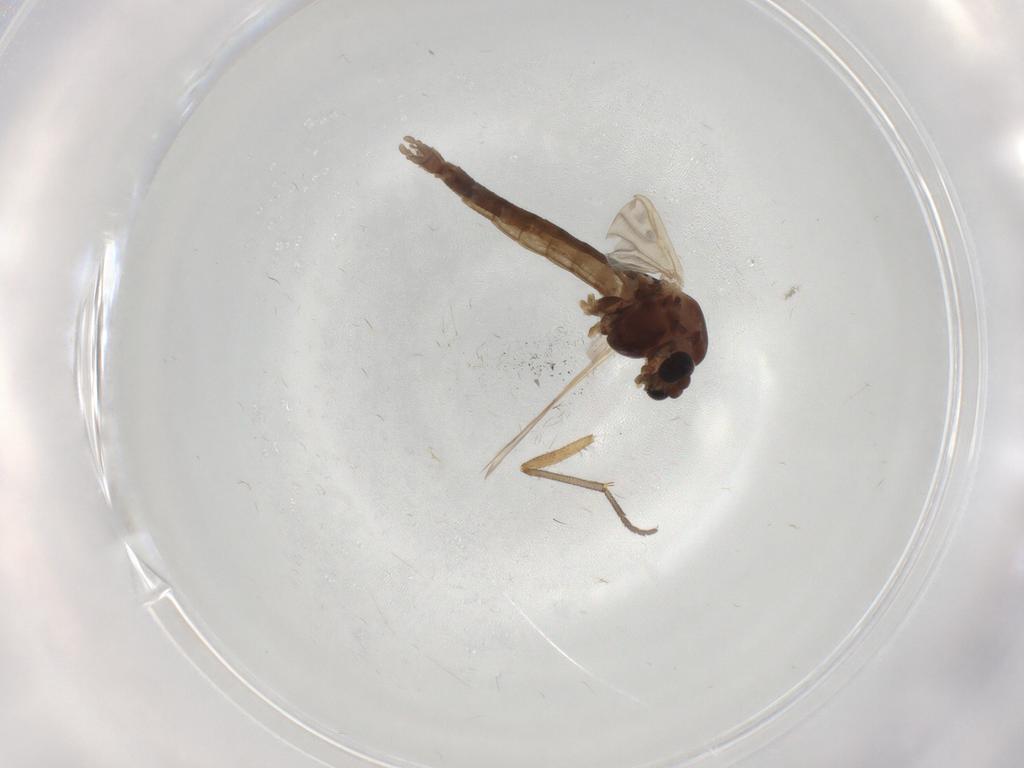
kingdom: Animalia
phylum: Arthropoda
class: Insecta
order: Diptera
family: Chironomidae
